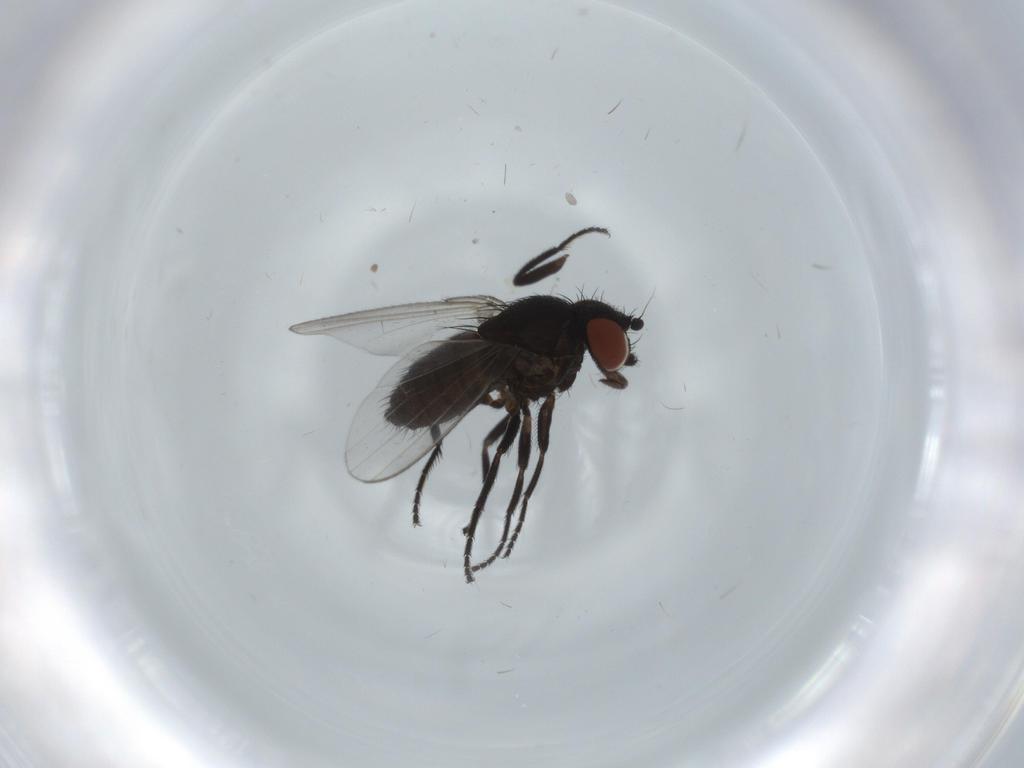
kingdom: Animalia
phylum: Arthropoda
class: Insecta
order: Diptera
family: Milichiidae
